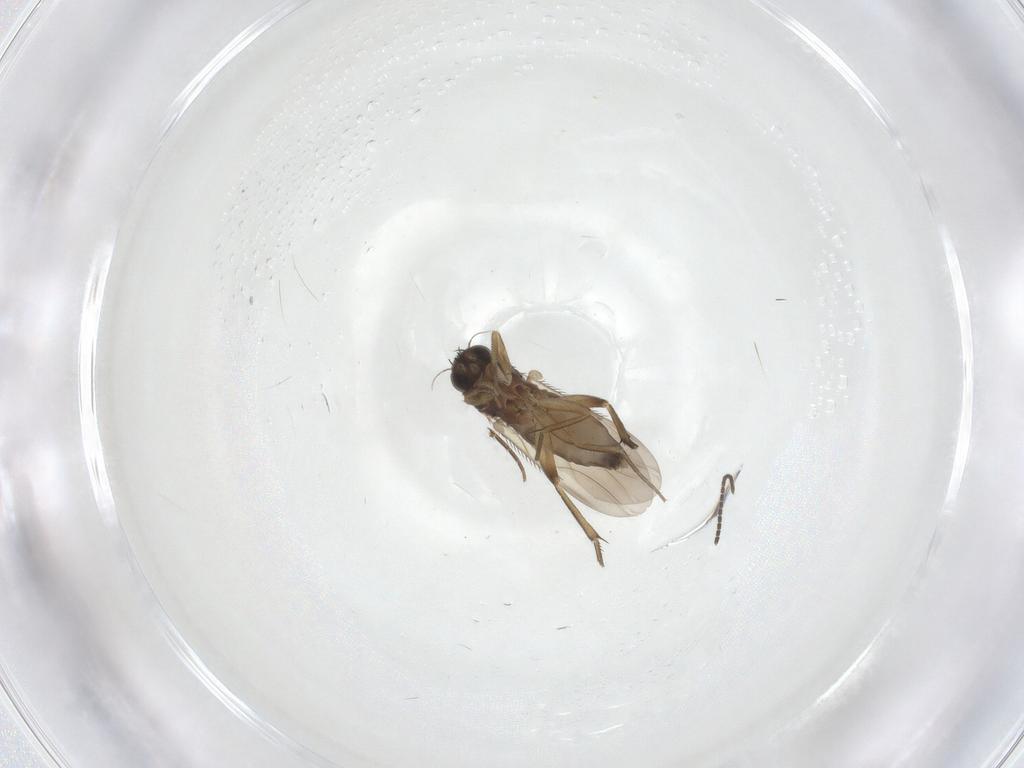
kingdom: Animalia
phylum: Arthropoda
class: Insecta
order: Diptera
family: Phoridae
